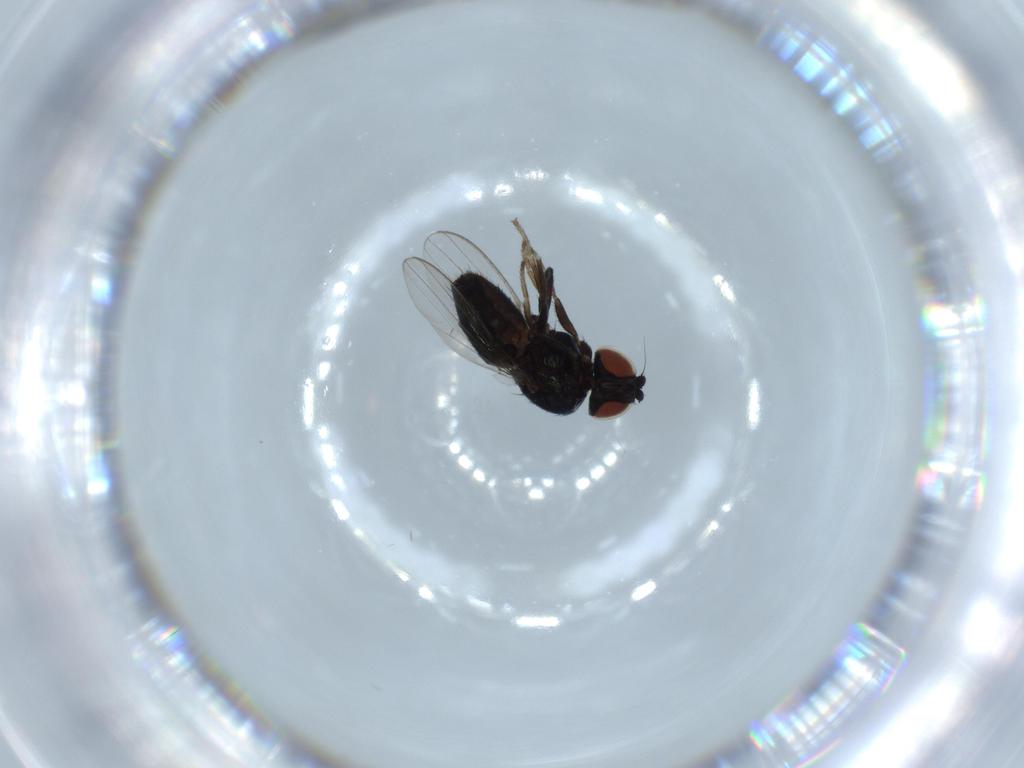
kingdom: Animalia
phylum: Arthropoda
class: Insecta
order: Diptera
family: Chloropidae
